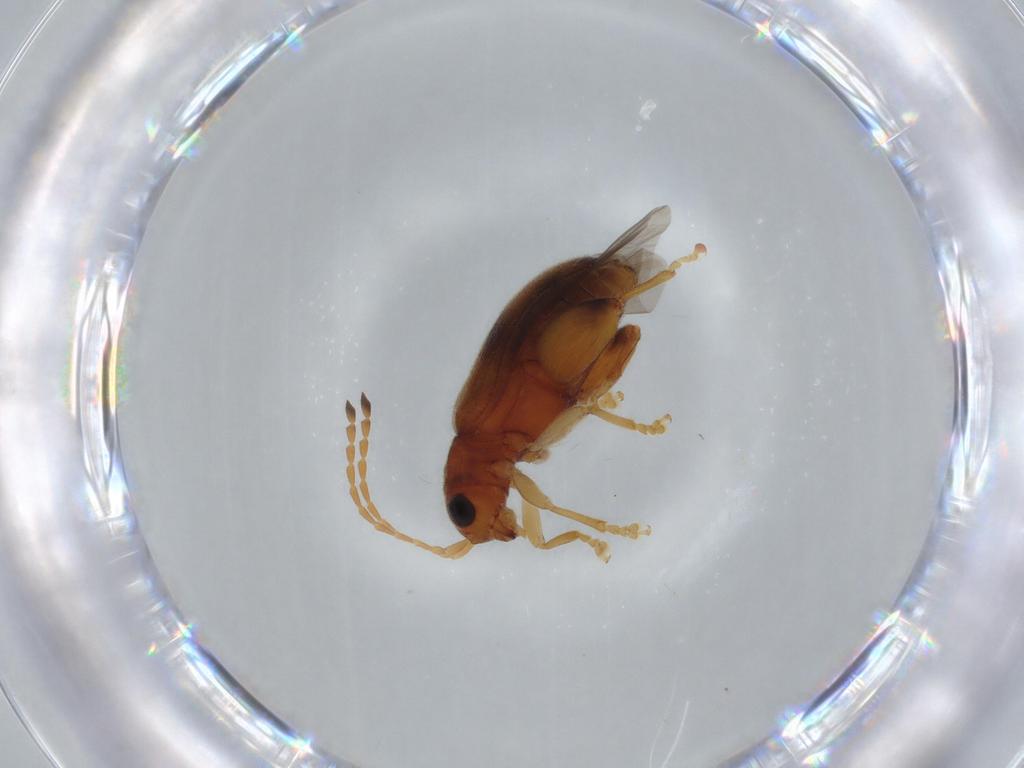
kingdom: Animalia
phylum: Arthropoda
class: Insecta
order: Coleoptera
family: Chrysomelidae
